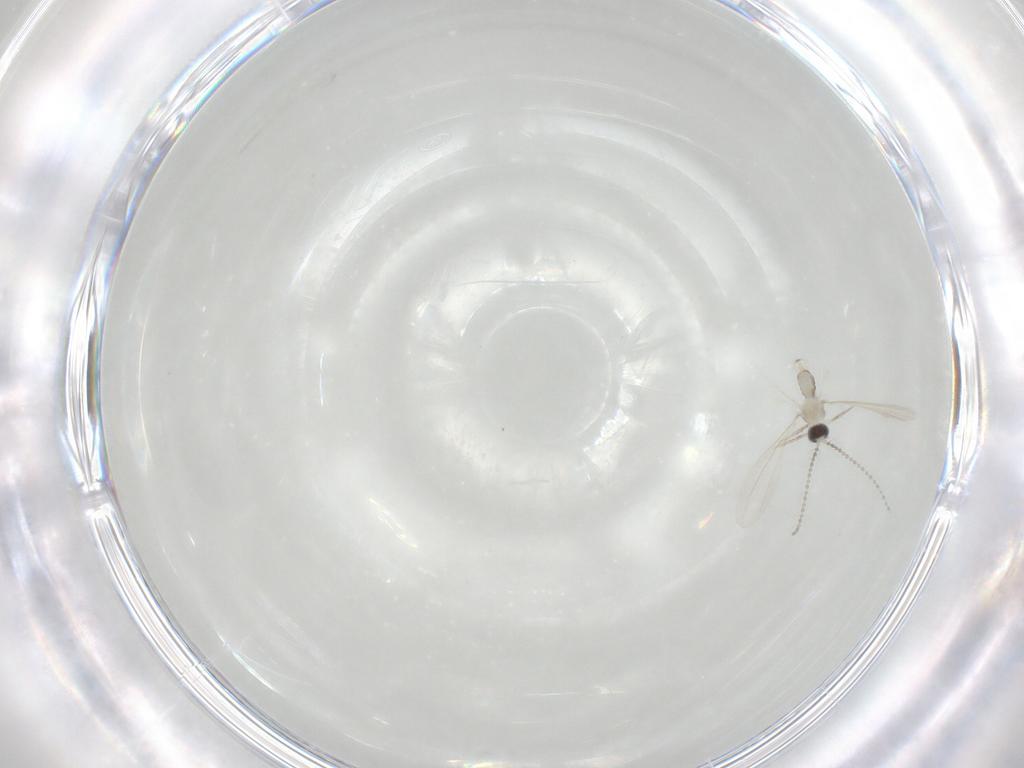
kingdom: Animalia
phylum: Arthropoda
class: Insecta
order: Diptera
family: Cecidomyiidae
